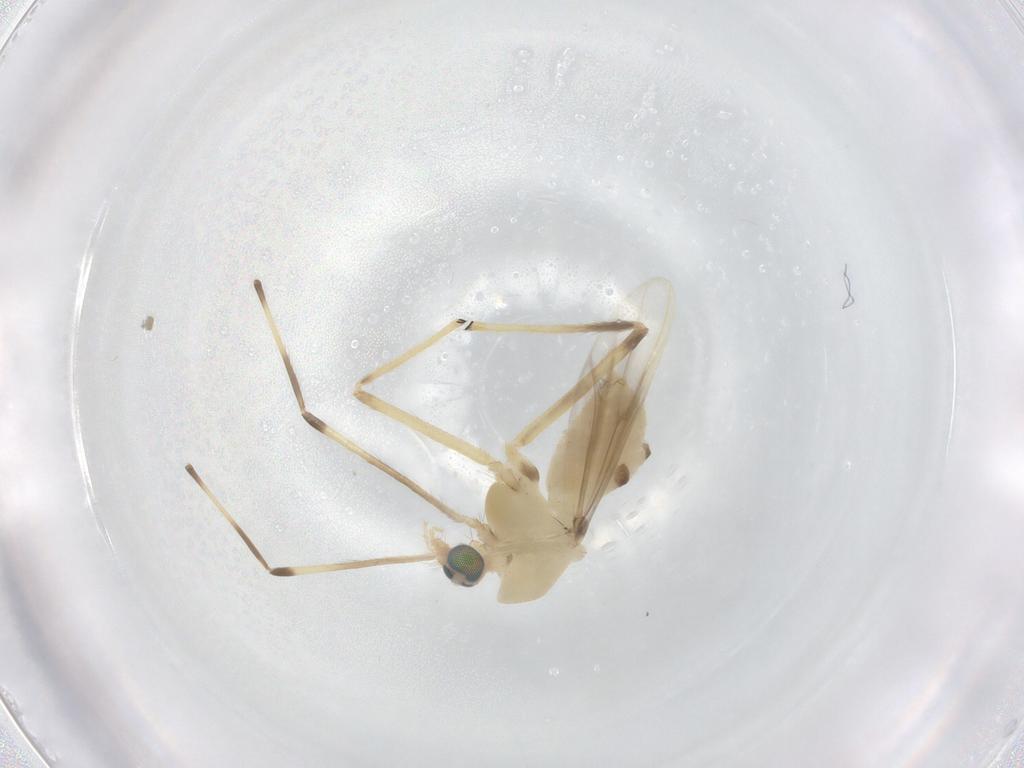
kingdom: Animalia
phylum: Arthropoda
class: Insecta
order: Diptera
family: Chironomidae
